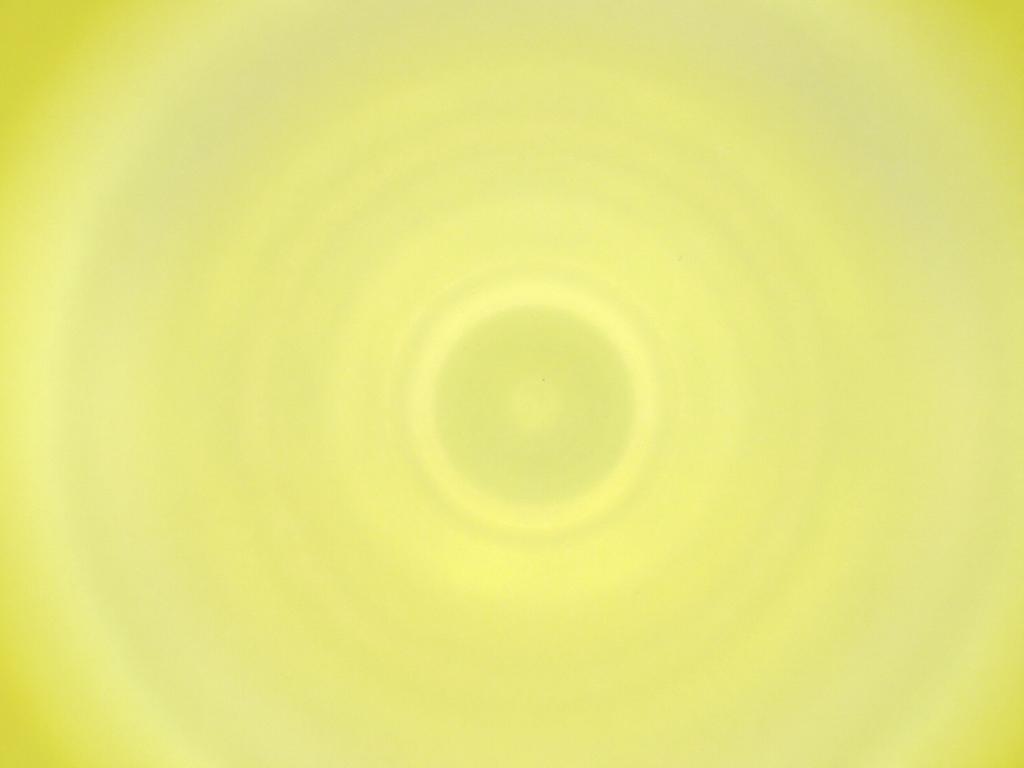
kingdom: Animalia
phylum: Arthropoda
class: Insecta
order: Diptera
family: Cecidomyiidae
